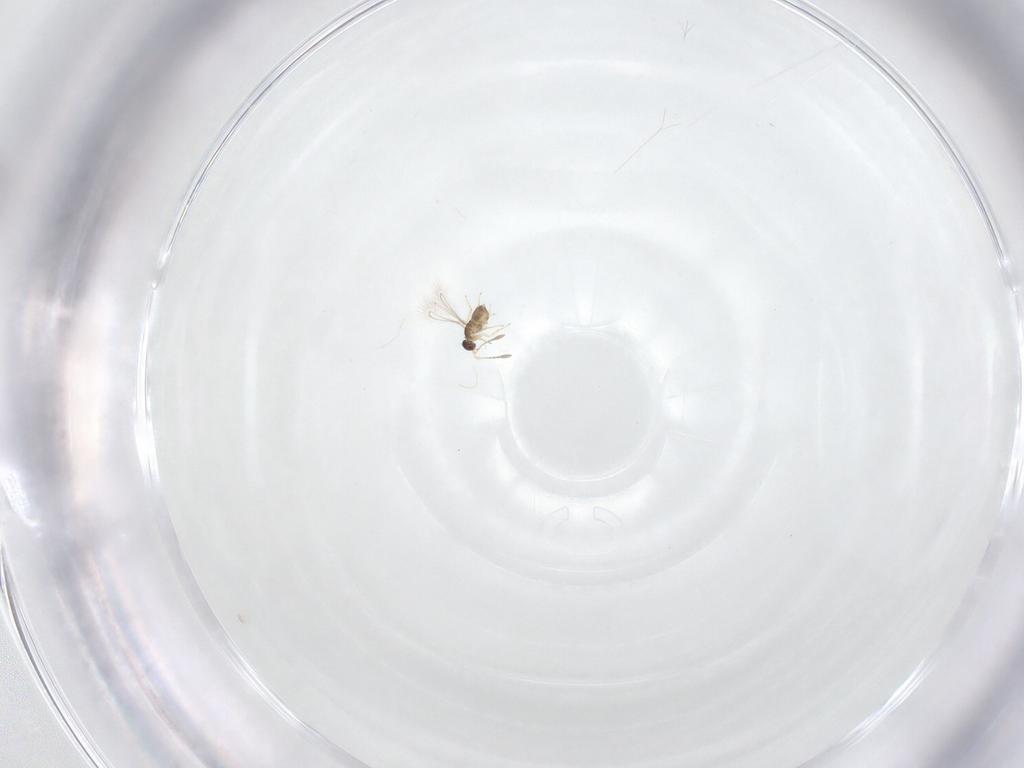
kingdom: Animalia
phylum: Arthropoda
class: Insecta
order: Hymenoptera
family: Mymaridae
